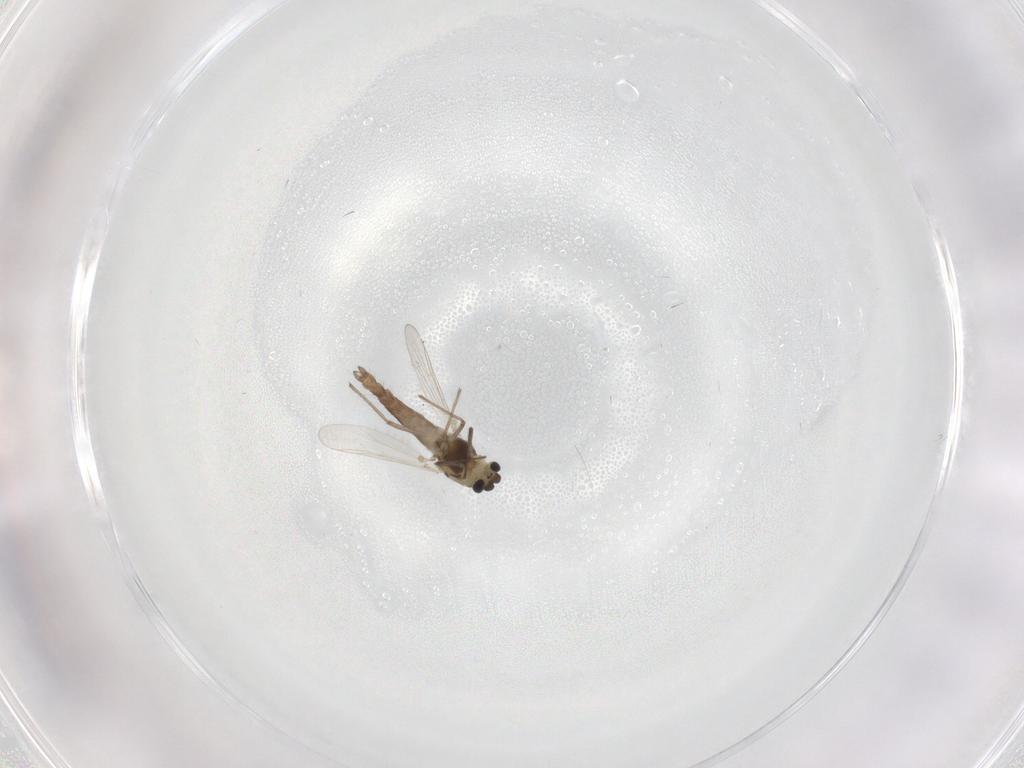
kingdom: Animalia
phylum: Arthropoda
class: Insecta
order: Diptera
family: Chironomidae
